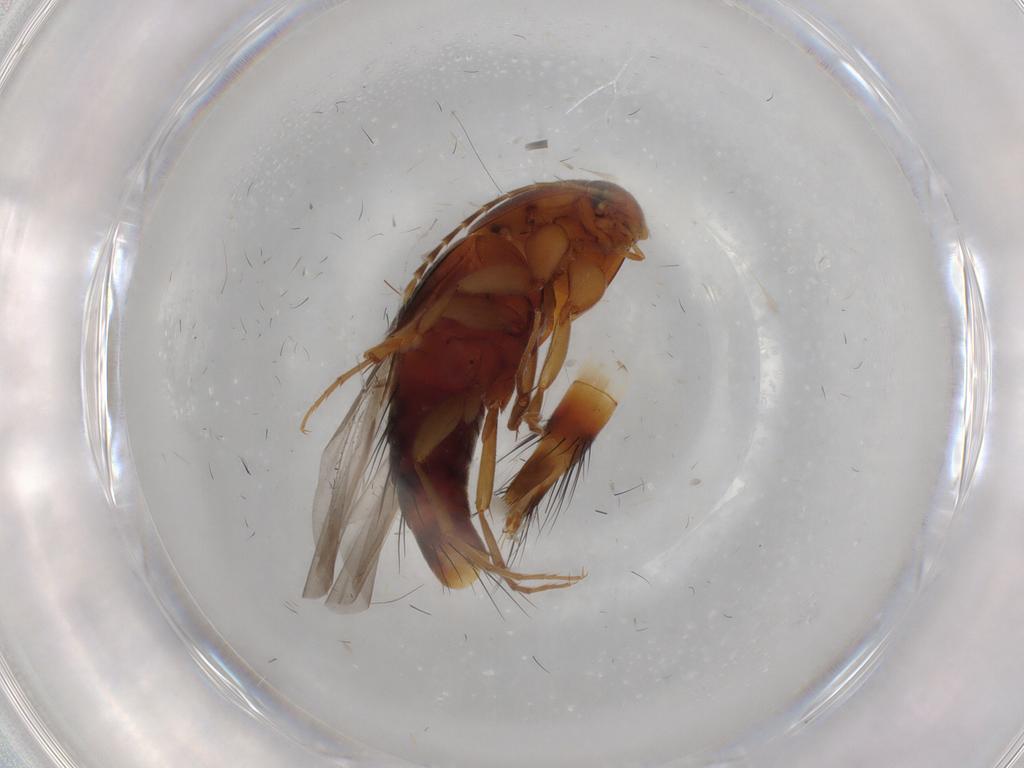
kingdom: Animalia
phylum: Arthropoda
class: Insecta
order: Coleoptera
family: Staphylinidae
